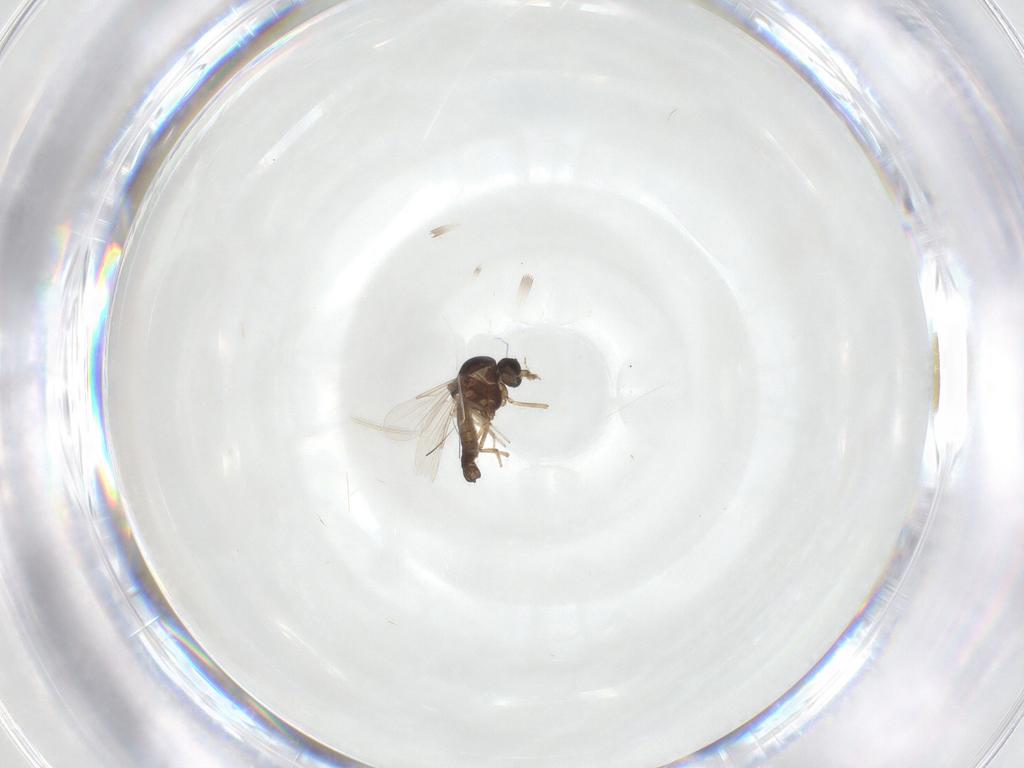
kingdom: Animalia
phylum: Arthropoda
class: Insecta
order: Diptera
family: Ceratopogonidae
